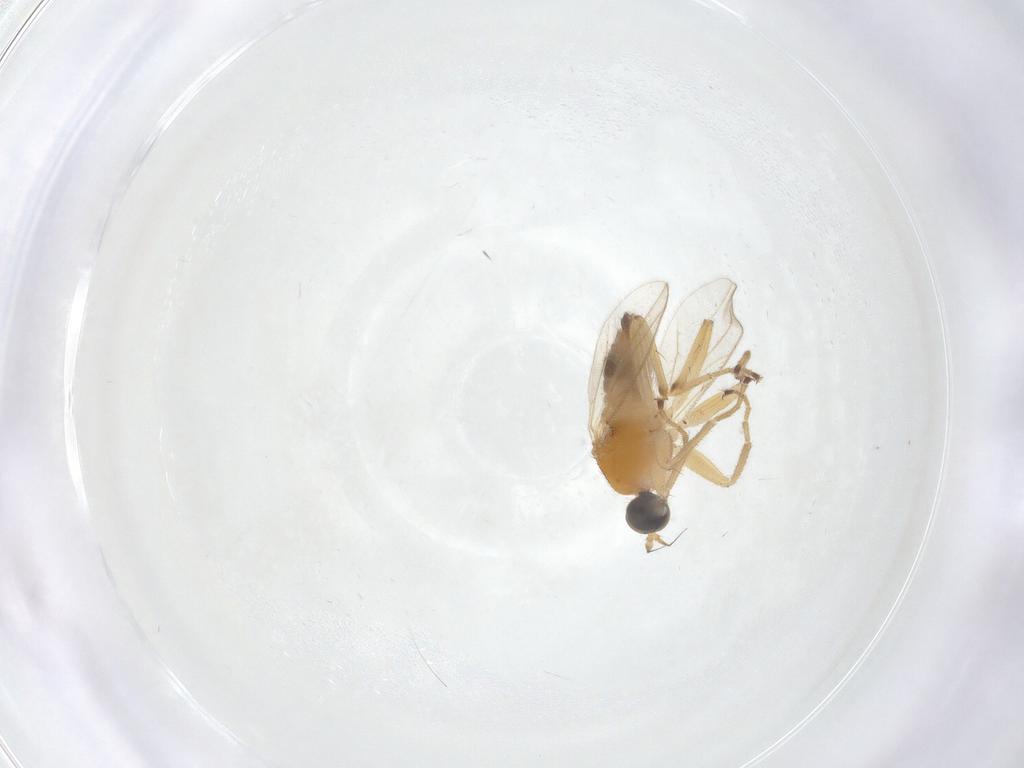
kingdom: Animalia
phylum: Arthropoda
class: Insecta
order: Diptera
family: Hybotidae
